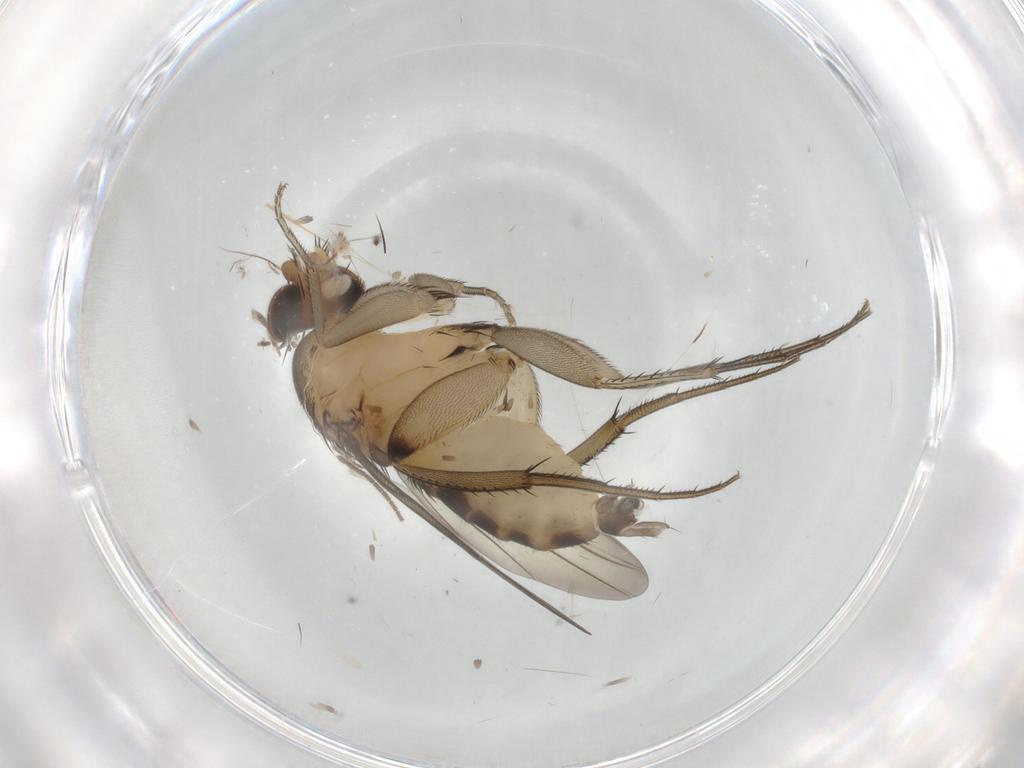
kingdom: Animalia
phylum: Arthropoda
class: Insecta
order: Diptera
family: Phoridae
